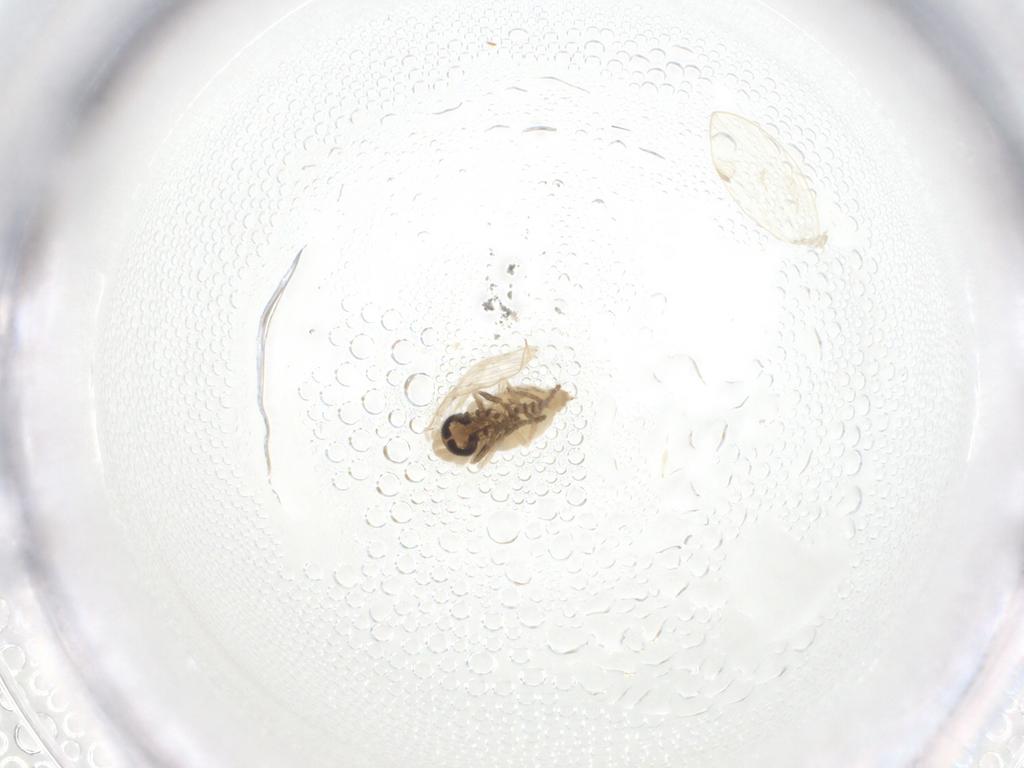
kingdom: Animalia
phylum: Arthropoda
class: Insecta
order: Diptera
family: Psychodidae
